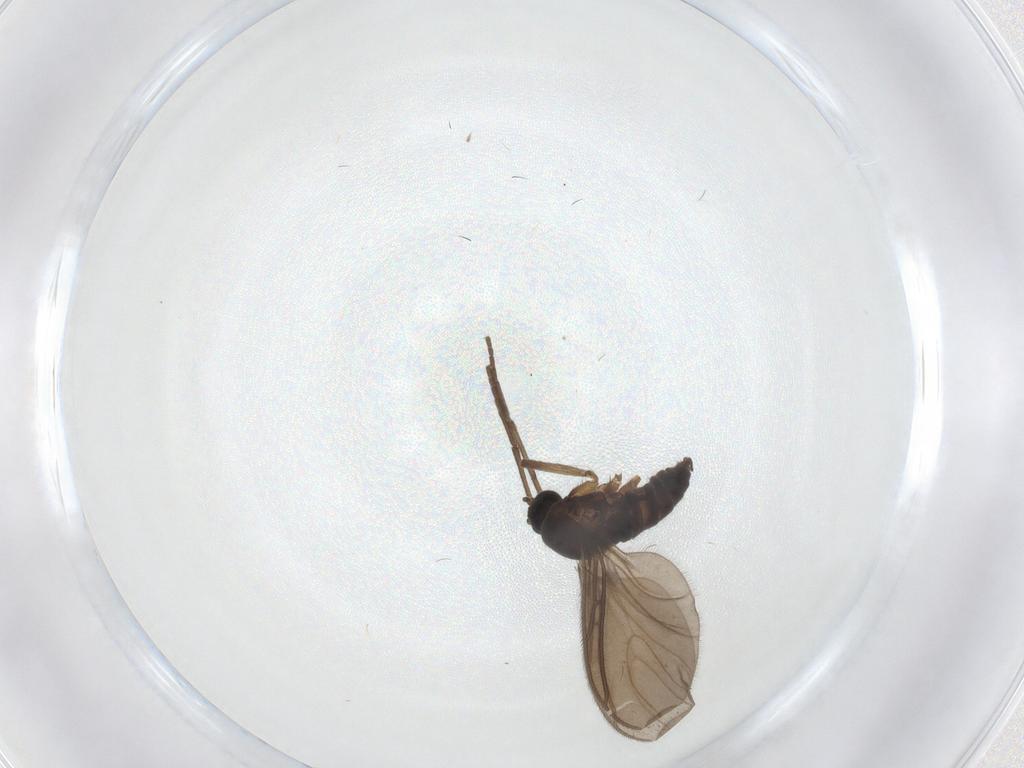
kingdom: Animalia
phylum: Arthropoda
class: Insecta
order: Diptera
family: Sciaridae
